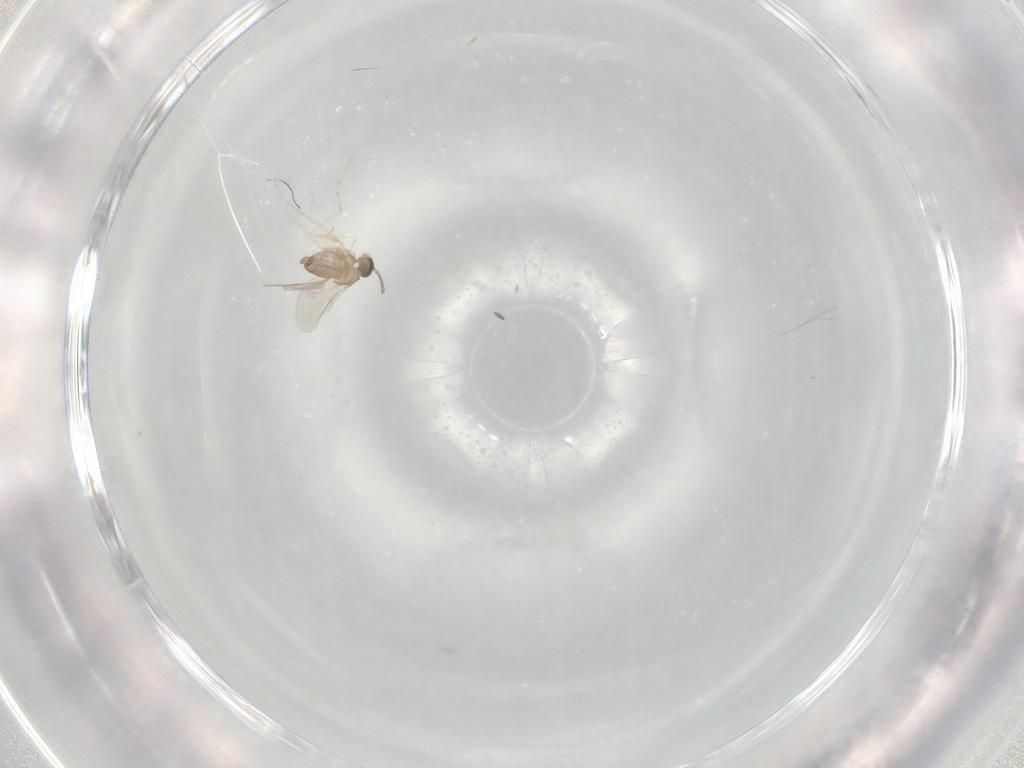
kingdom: Animalia
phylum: Arthropoda
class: Insecta
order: Diptera
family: Cecidomyiidae
